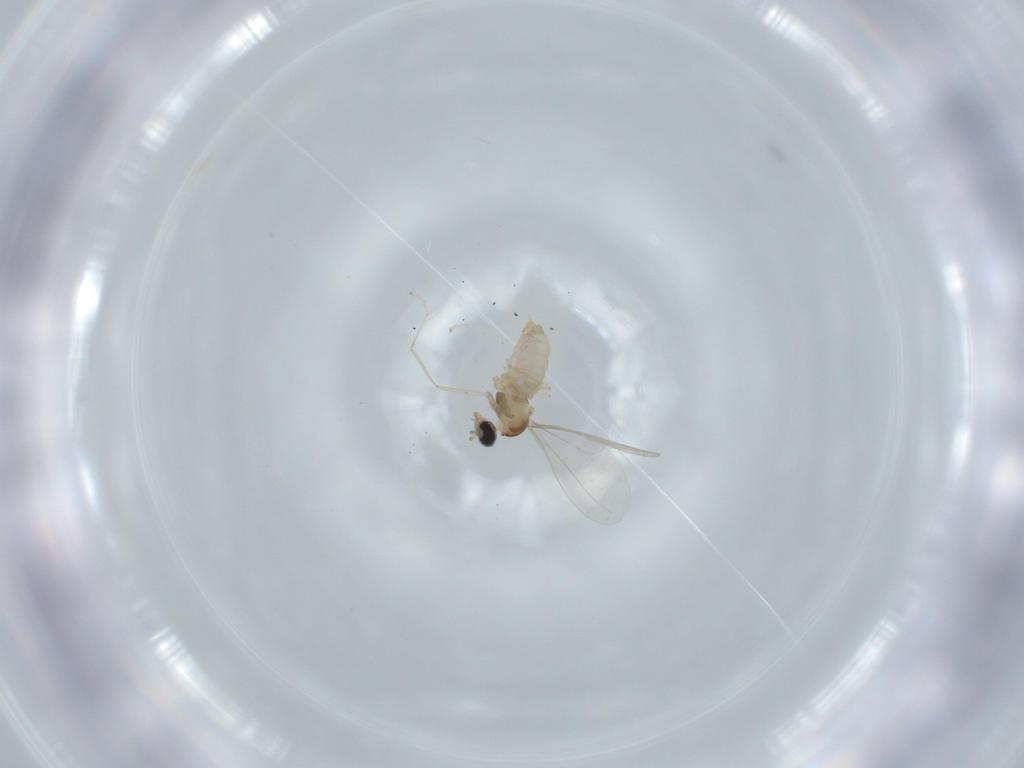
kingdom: Animalia
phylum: Arthropoda
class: Insecta
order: Diptera
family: Cecidomyiidae
